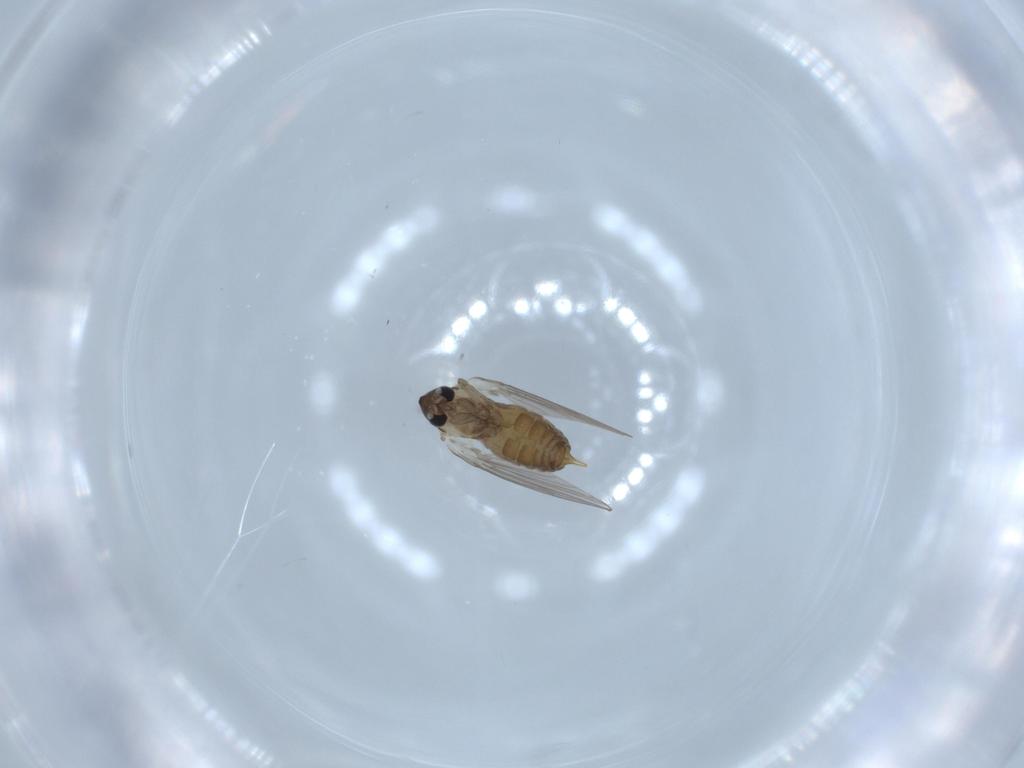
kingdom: Animalia
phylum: Arthropoda
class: Insecta
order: Diptera
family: Psychodidae
